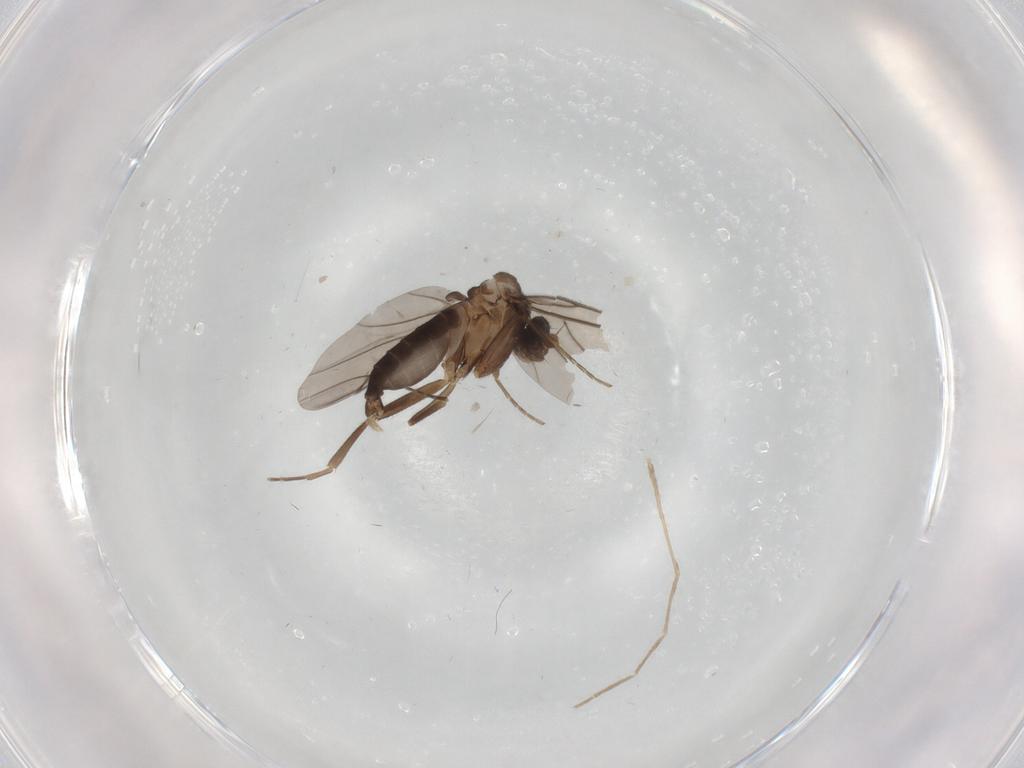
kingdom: Animalia
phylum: Arthropoda
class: Insecta
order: Diptera
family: Chironomidae
